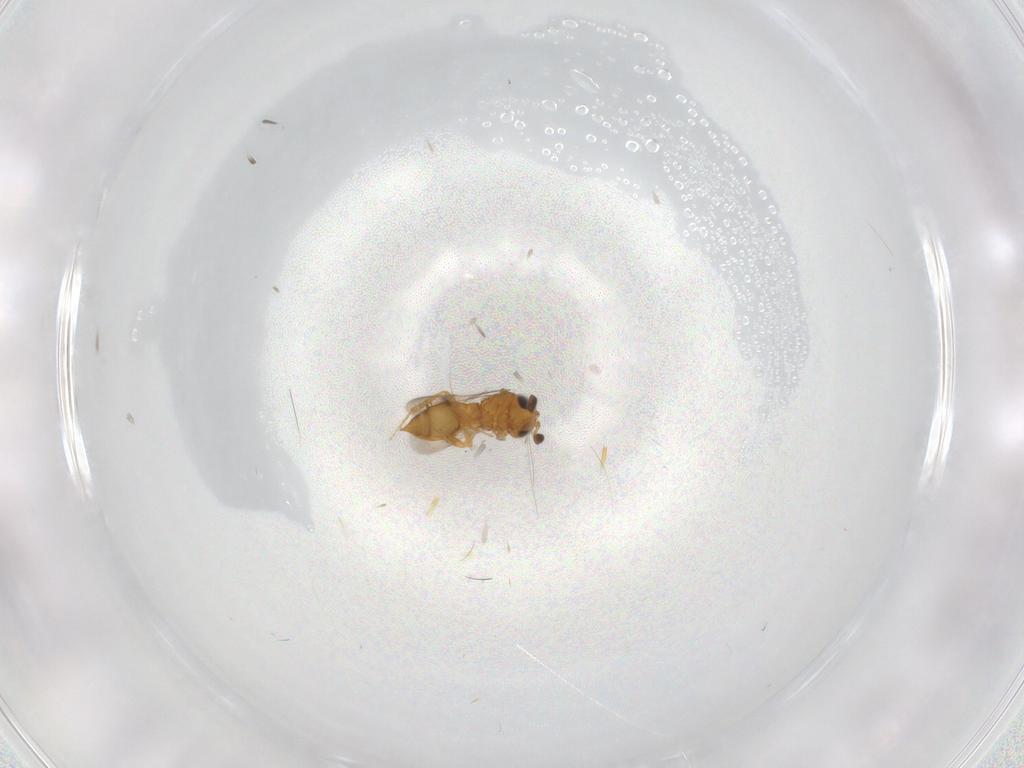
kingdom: Animalia
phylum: Arthropoda
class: Insecta
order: Hymenoptera
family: Scelionidae
